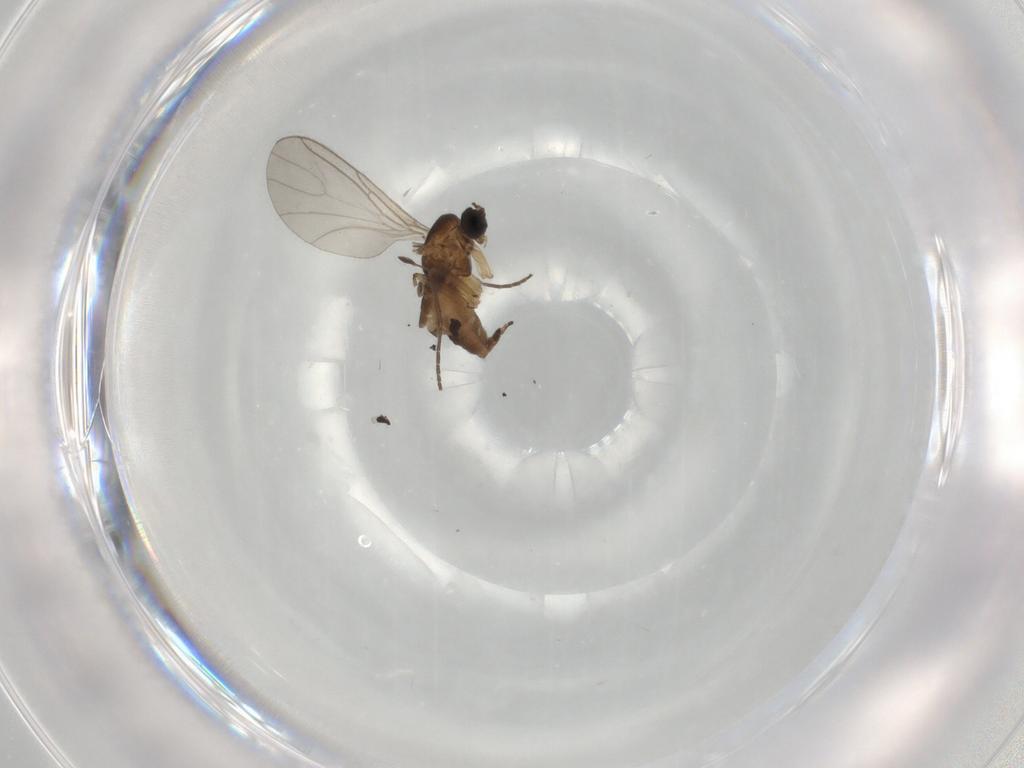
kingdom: Animalia
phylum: Arthropoda
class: Insecta
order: Diptera
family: Sciaridae
